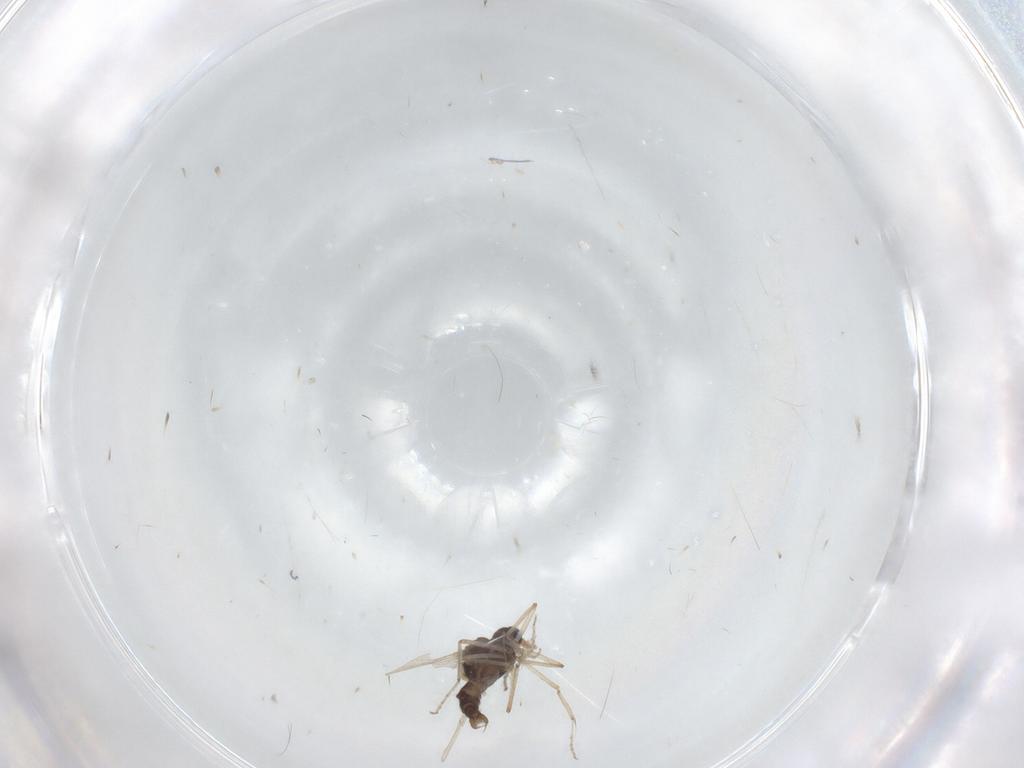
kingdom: Animalia
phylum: Arthropoda
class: Insecta
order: Diptera
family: Ceratopogonidae
